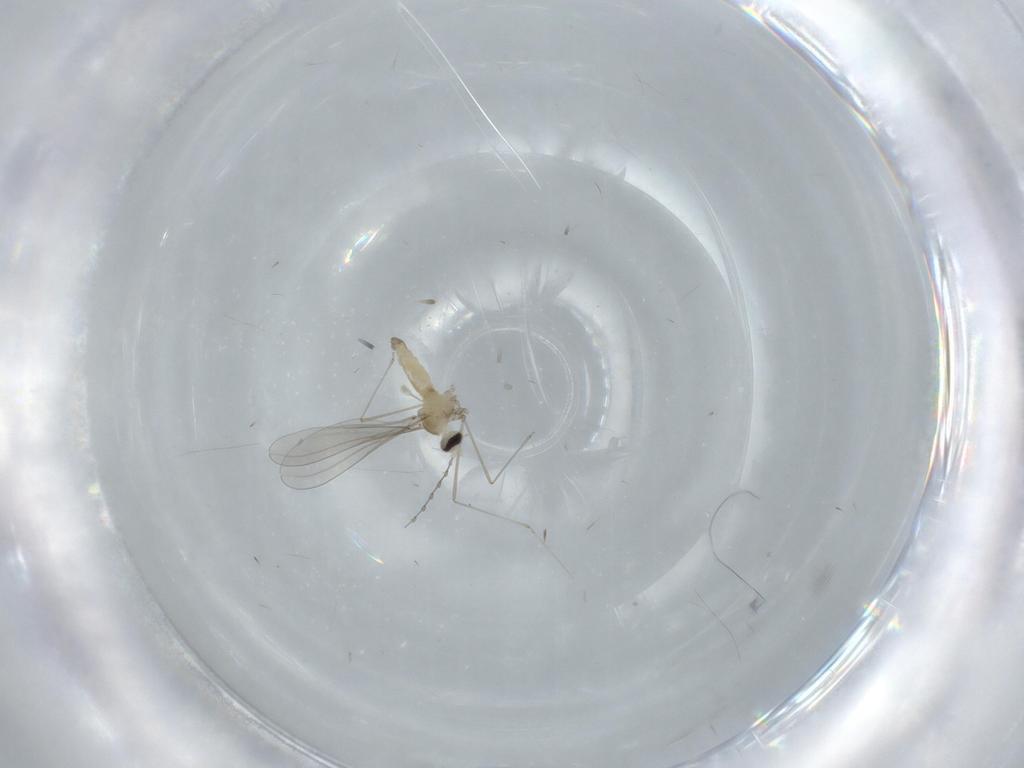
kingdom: Animalia
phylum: Arthropoda
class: Insecta
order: Diptera
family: Cecidomyiidae
